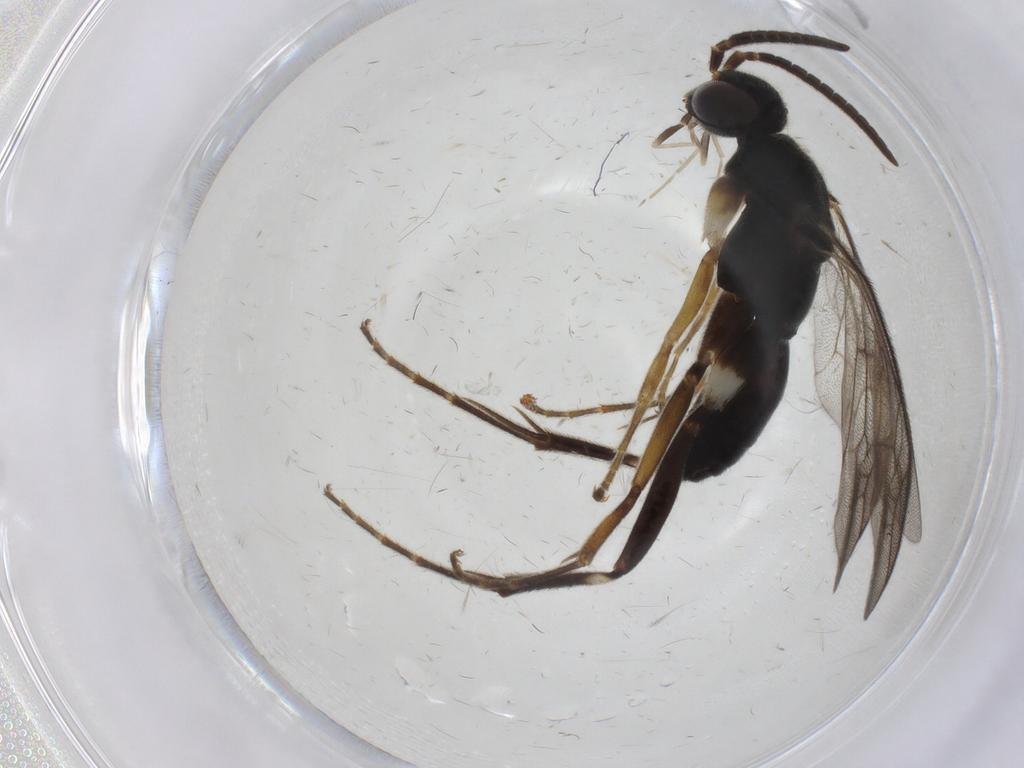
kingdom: Animalia
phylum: Arthropoda
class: Insecta
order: Hymenoptera
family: Pompilidae
